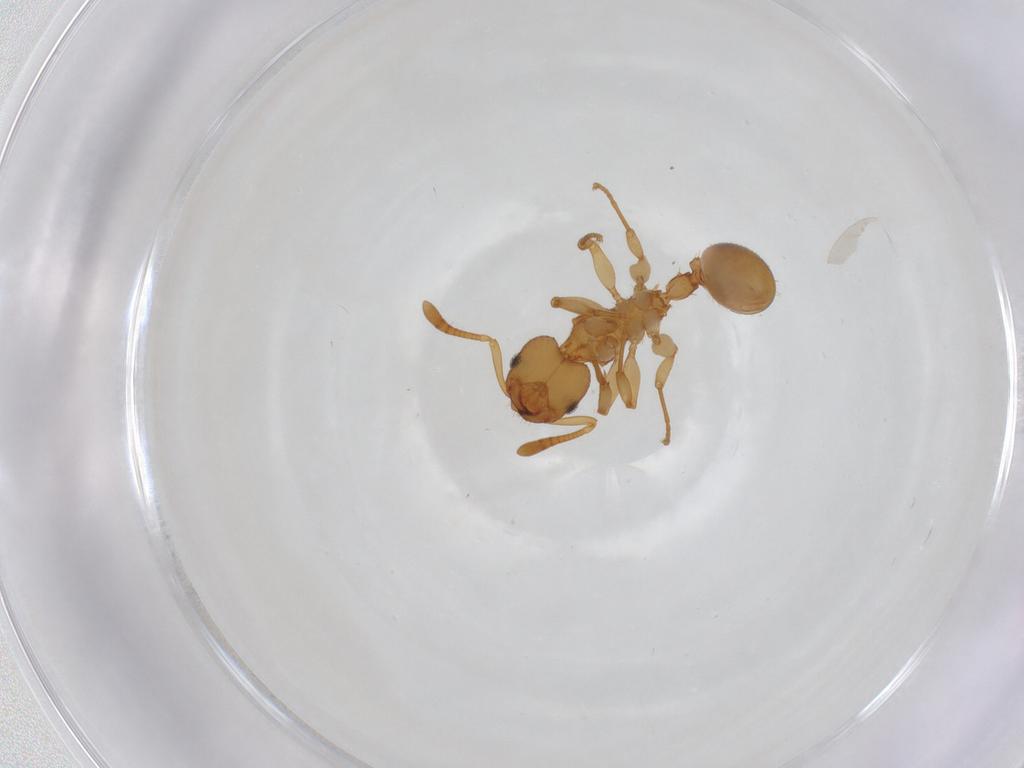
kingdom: Animalia
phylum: Arthropoda
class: Insecta
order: Hymenoptera
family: Formicidae
